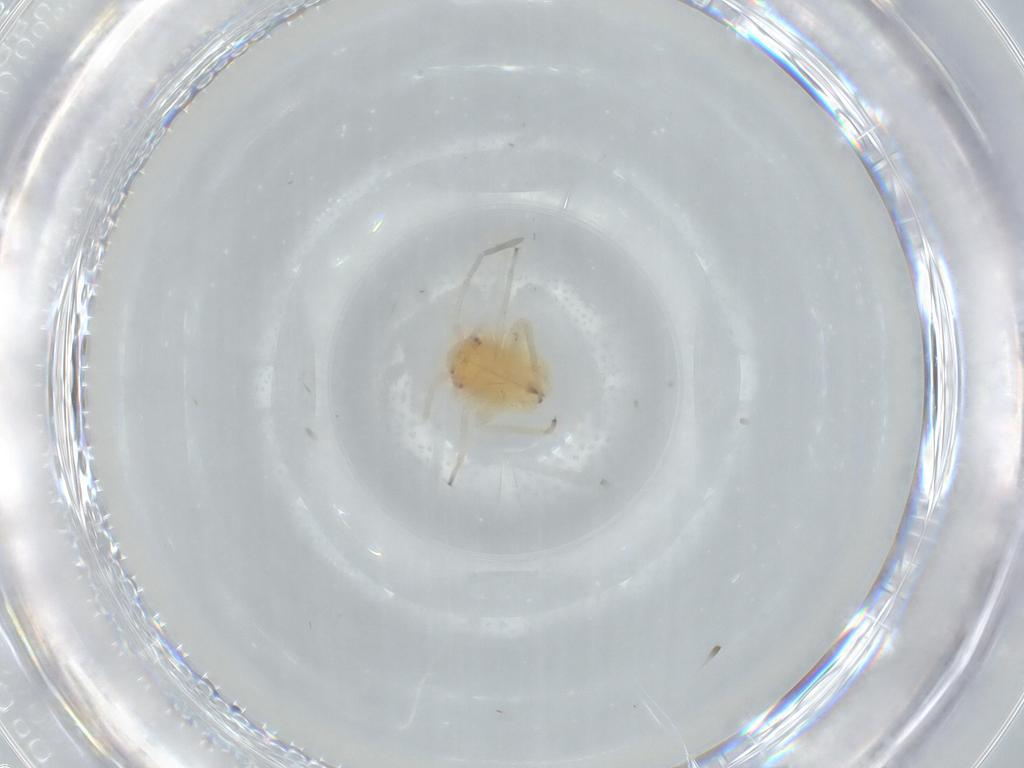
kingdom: Animalia
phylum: Arthropoda
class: Insecta
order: Hemiptera
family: Miridae
